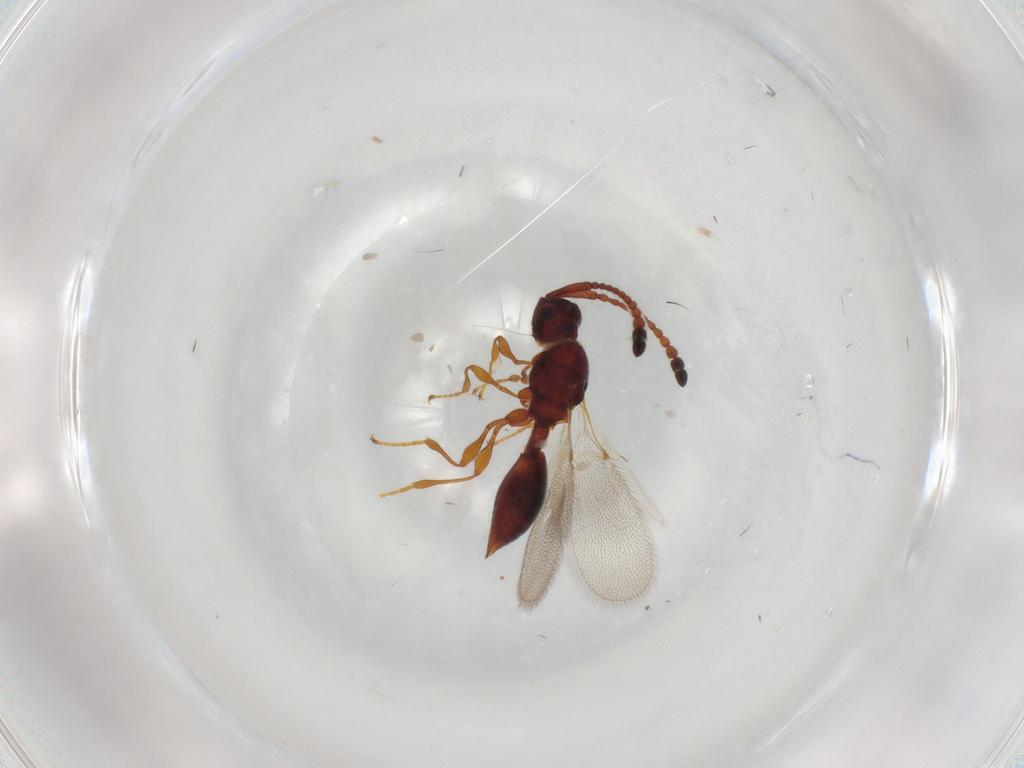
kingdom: Animalia
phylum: Arthropoda
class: Insecta
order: Hymenoptera
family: Diapriidae
